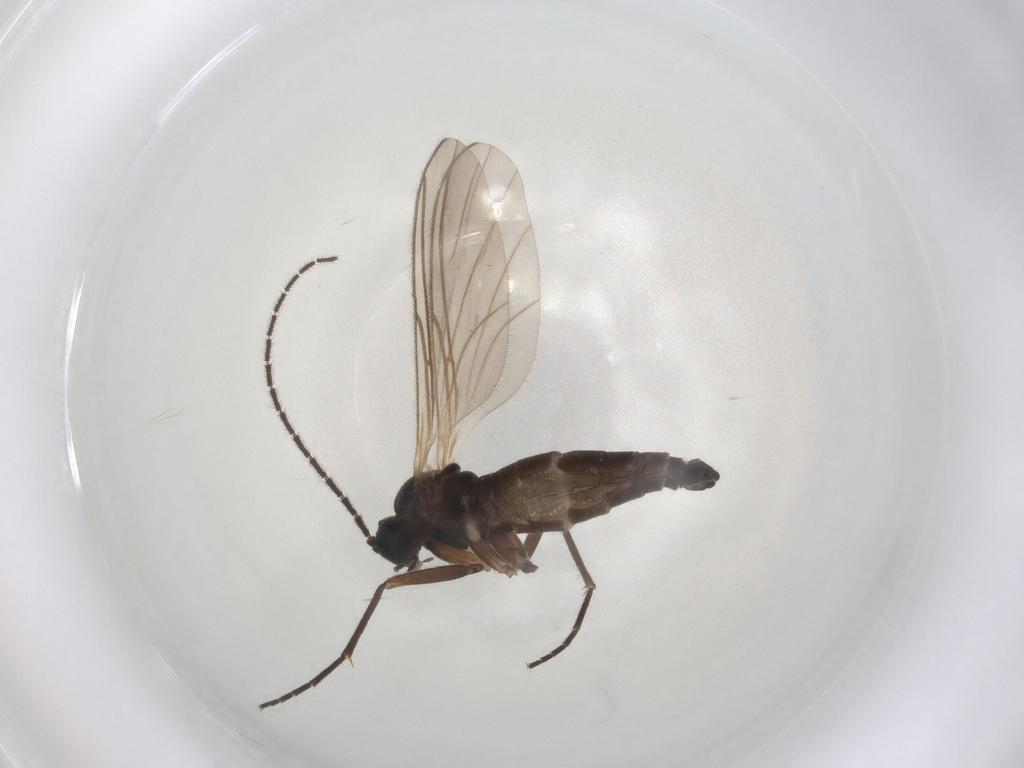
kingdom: Animalia
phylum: Arthropoda
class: Insecta
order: Diptera
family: Sciaridae
